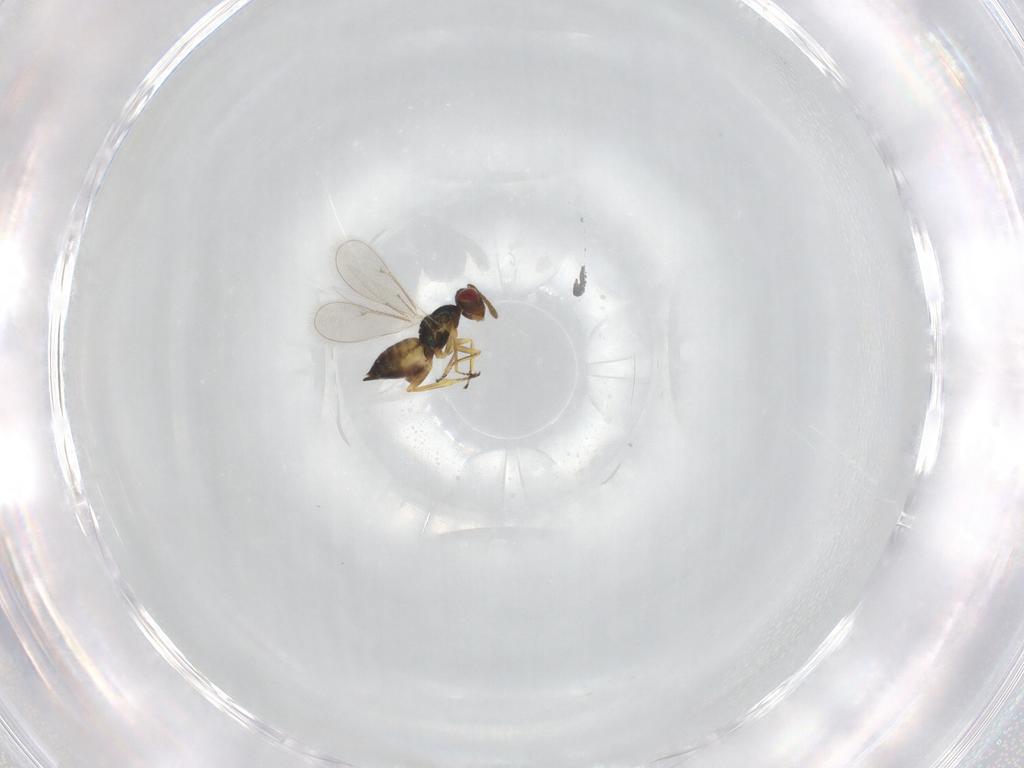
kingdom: Animalia
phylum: Arthropoda
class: Insecta
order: Hymenoptera
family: Eulophidae
